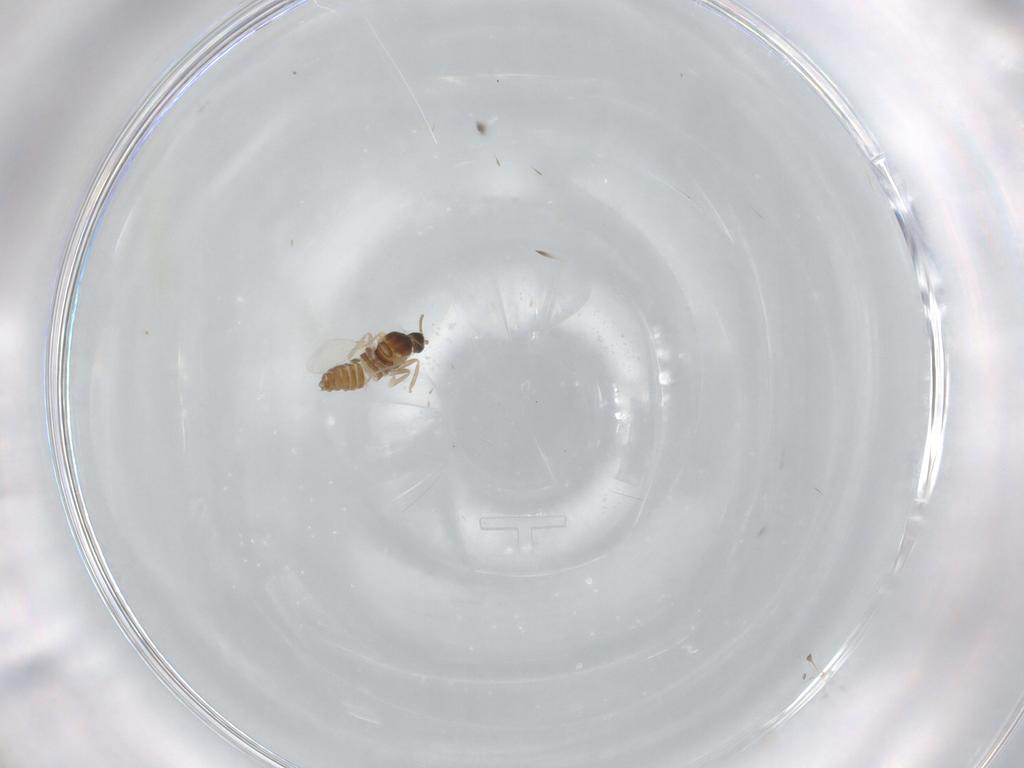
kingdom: Animalia
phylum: Arthropoda
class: Insecta
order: Diptera
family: Cecidomyiidae
